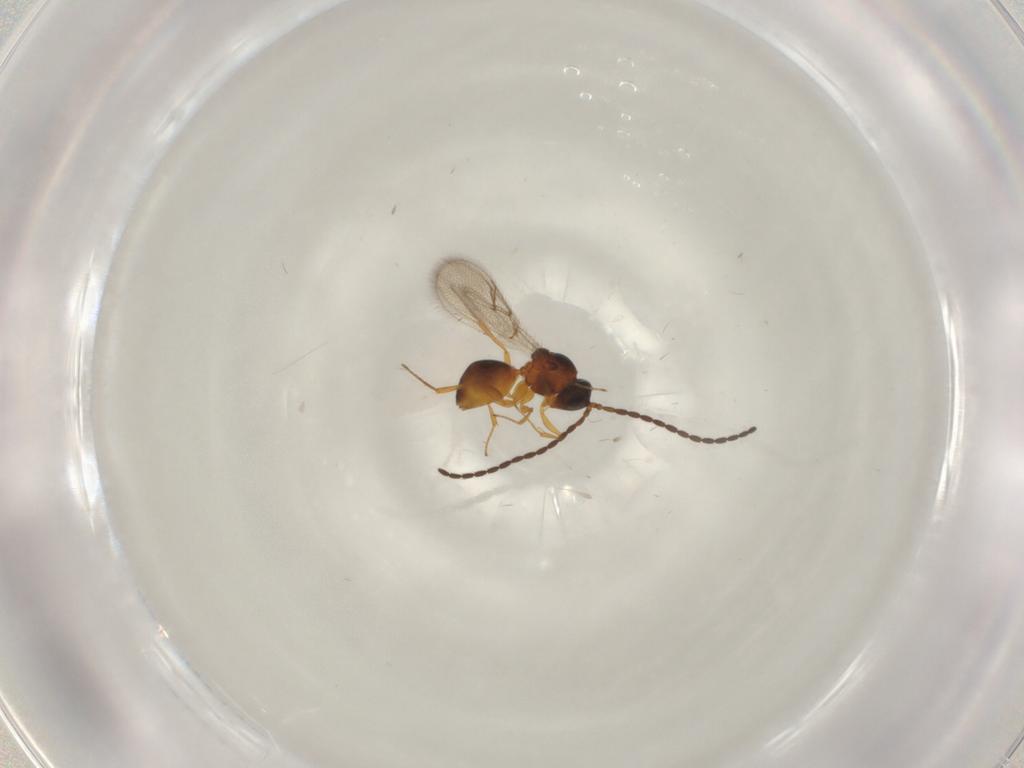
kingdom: Animalia
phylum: Arthropoda
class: Insecta
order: Hymenoptera
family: Figitidae
